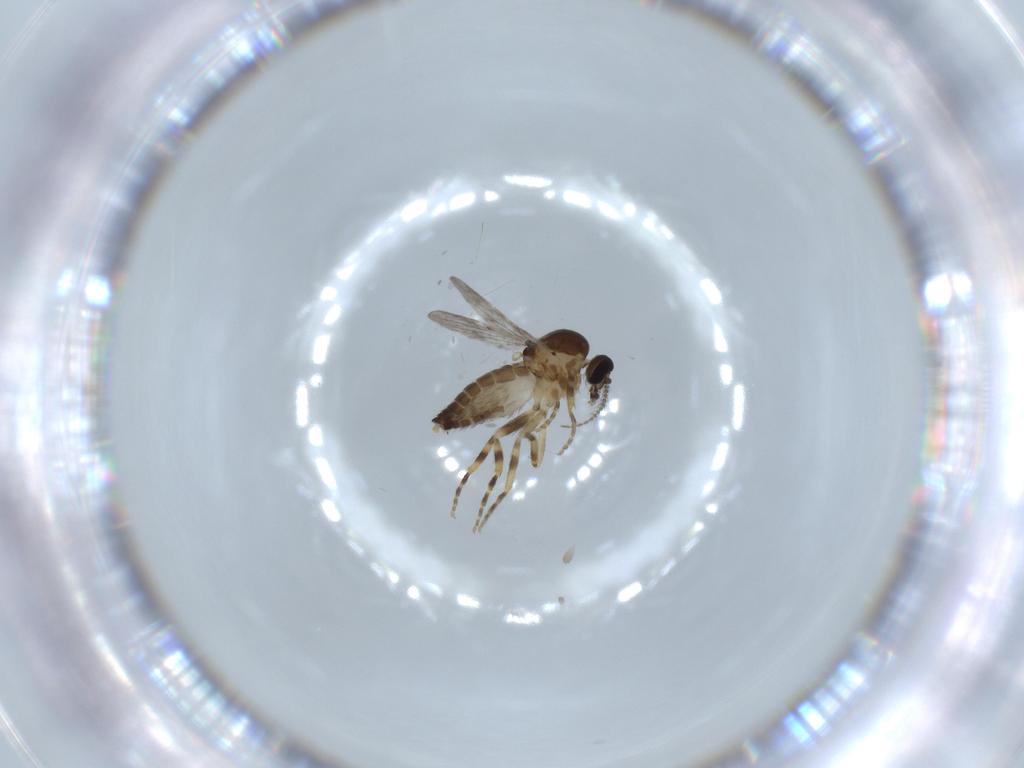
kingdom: Animalia
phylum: Arthropoda
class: Insecta
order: Diptera
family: Ceratopogonidae
